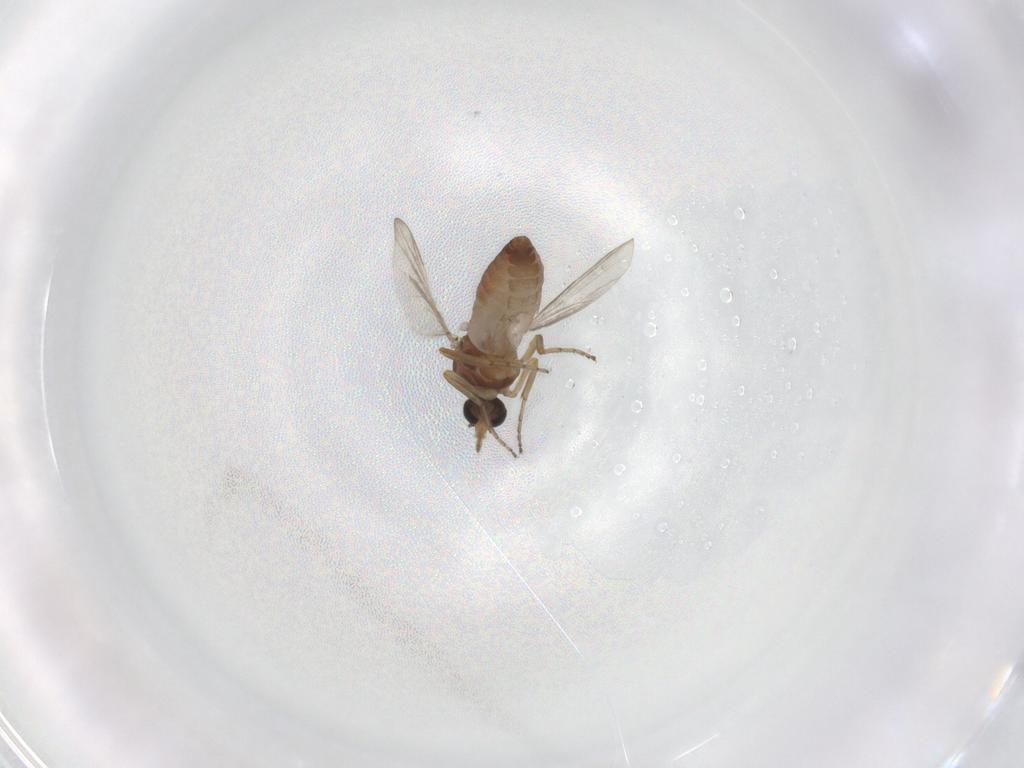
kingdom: Animalia
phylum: Arthropoda
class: Insecta
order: Diptera
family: Ceratopogonidae
